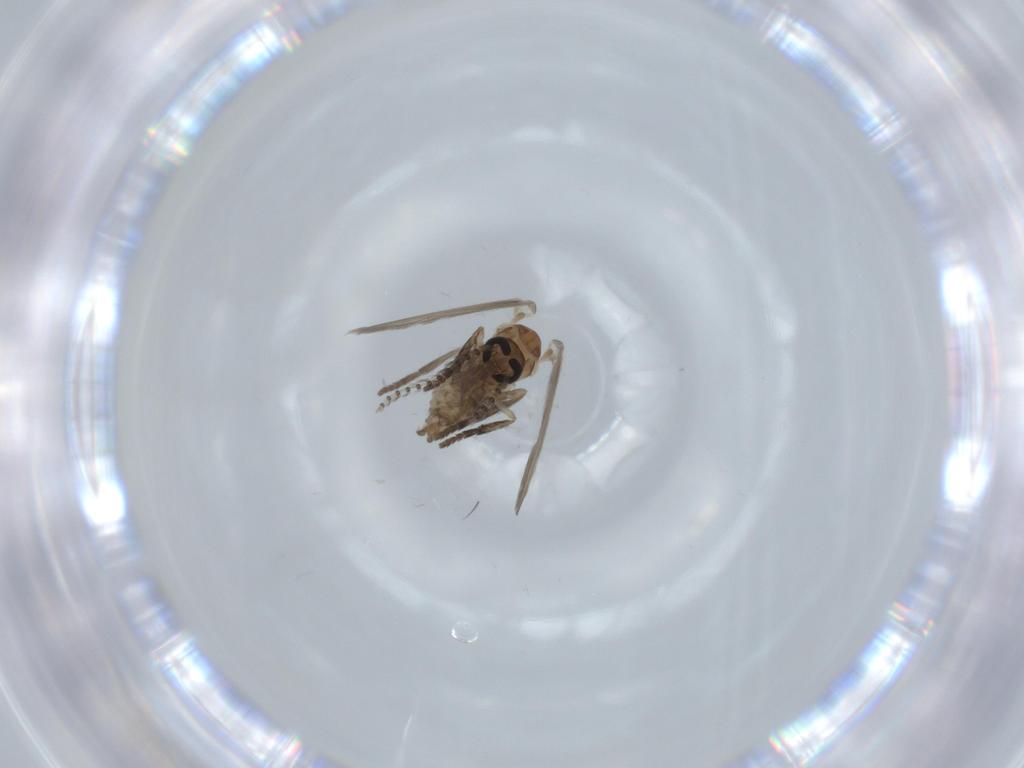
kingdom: Animalia
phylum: Arthropoda
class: Insecta
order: Diptera
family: Psychodidae
